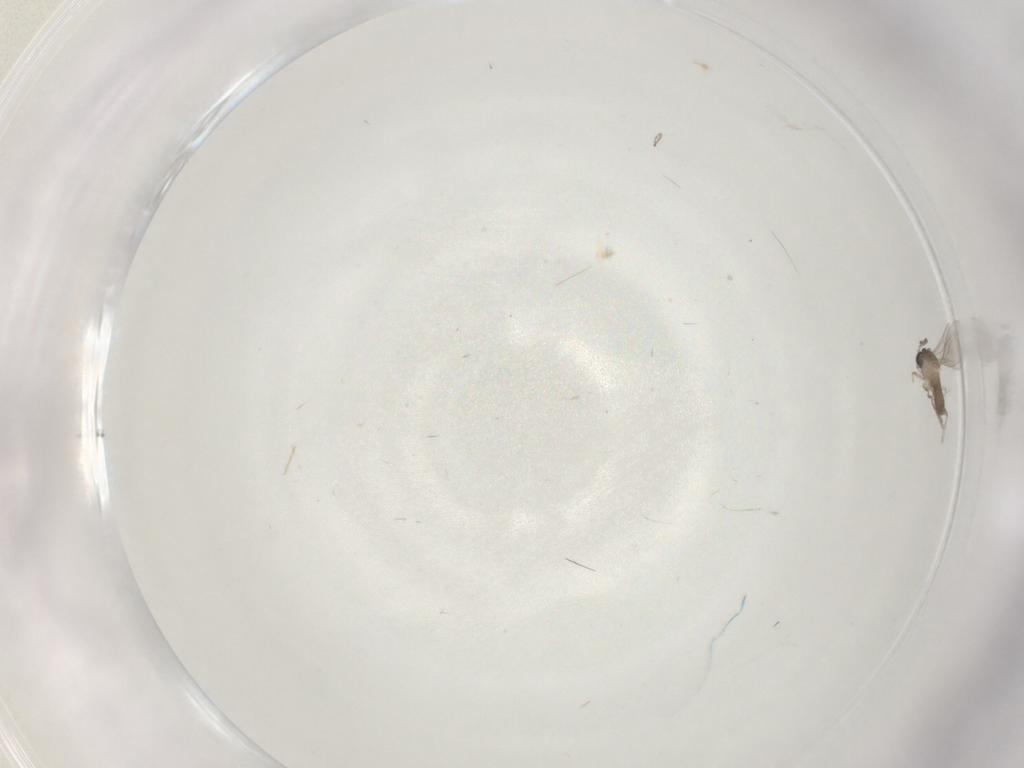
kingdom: Animalia
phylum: Arthropoda
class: Insecta
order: Diptera
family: Cecidomyiidae
